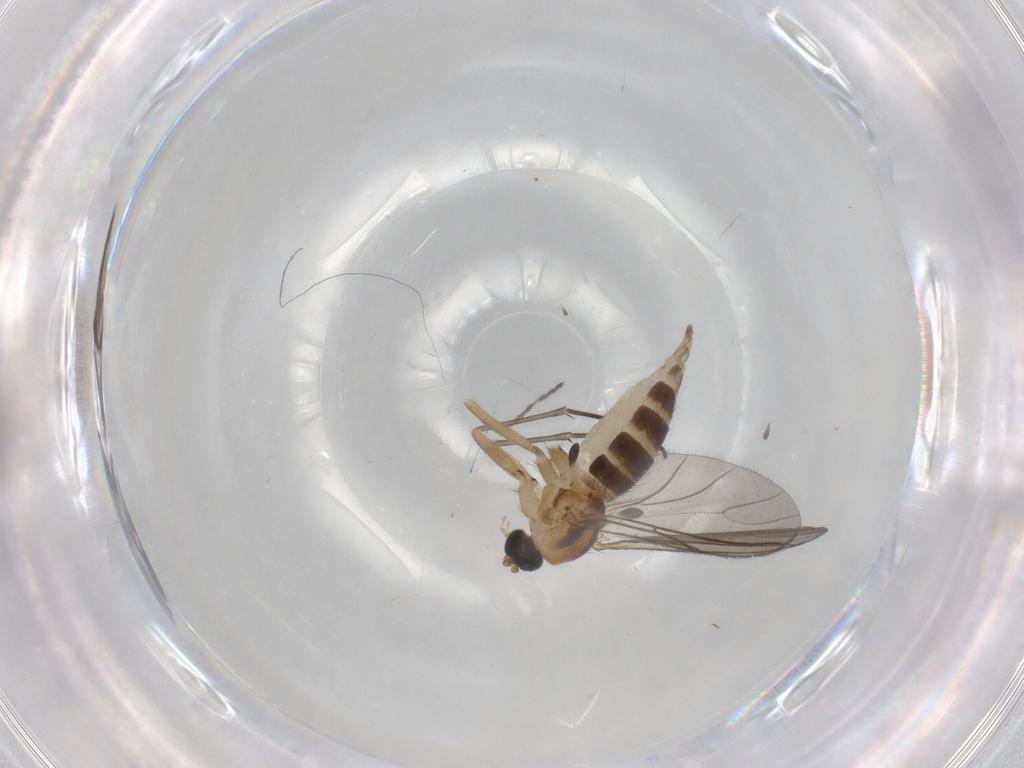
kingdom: Animalia
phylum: Arthropoda
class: Insecta
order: Diptera
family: Sciaridae
